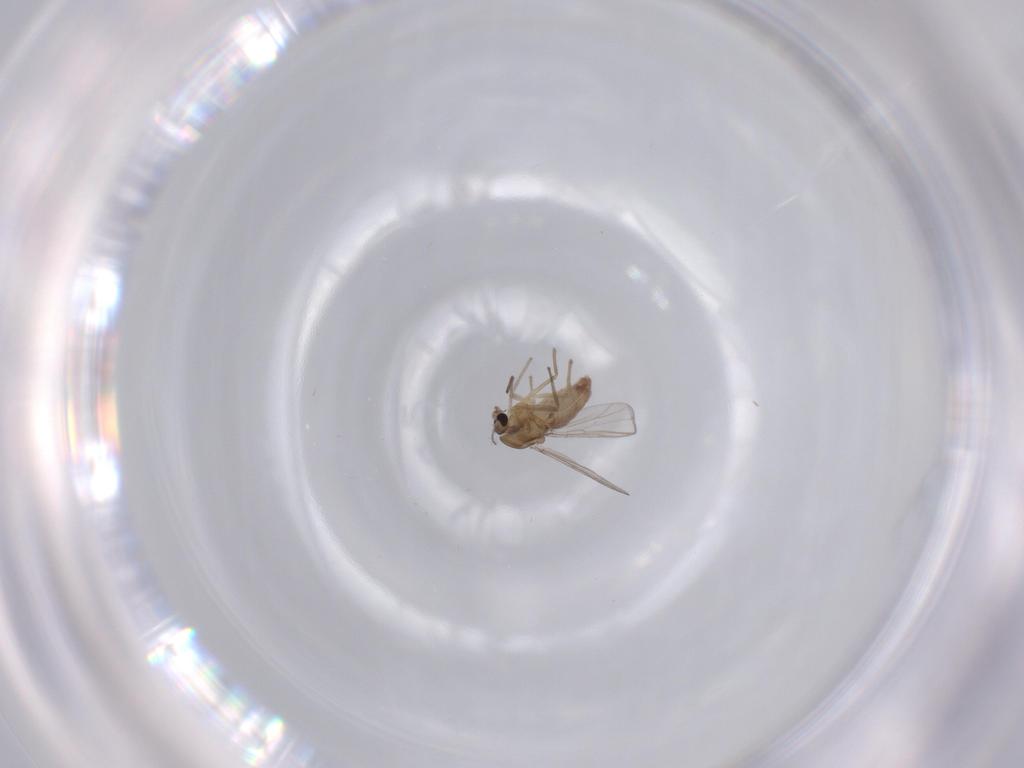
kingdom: Animalia
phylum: Arthropoda
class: Insecta
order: Diptera
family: Chironomidae
